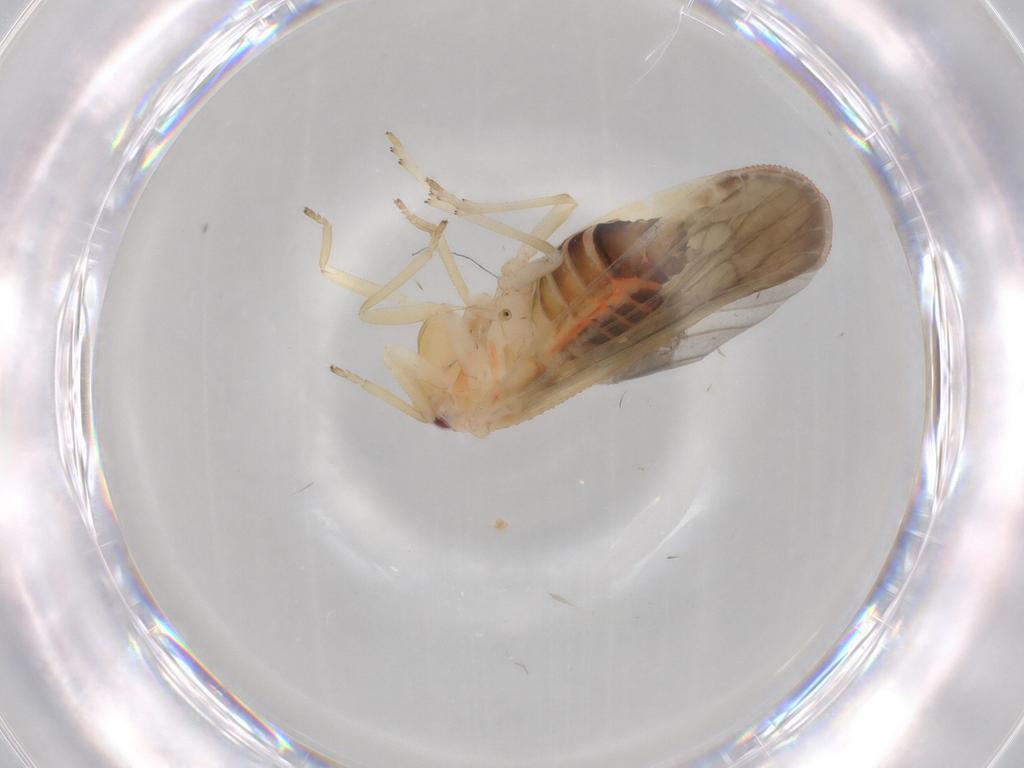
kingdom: Animalia
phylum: Arthropoda
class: Insecta
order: Hemiptera
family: Derbidae
